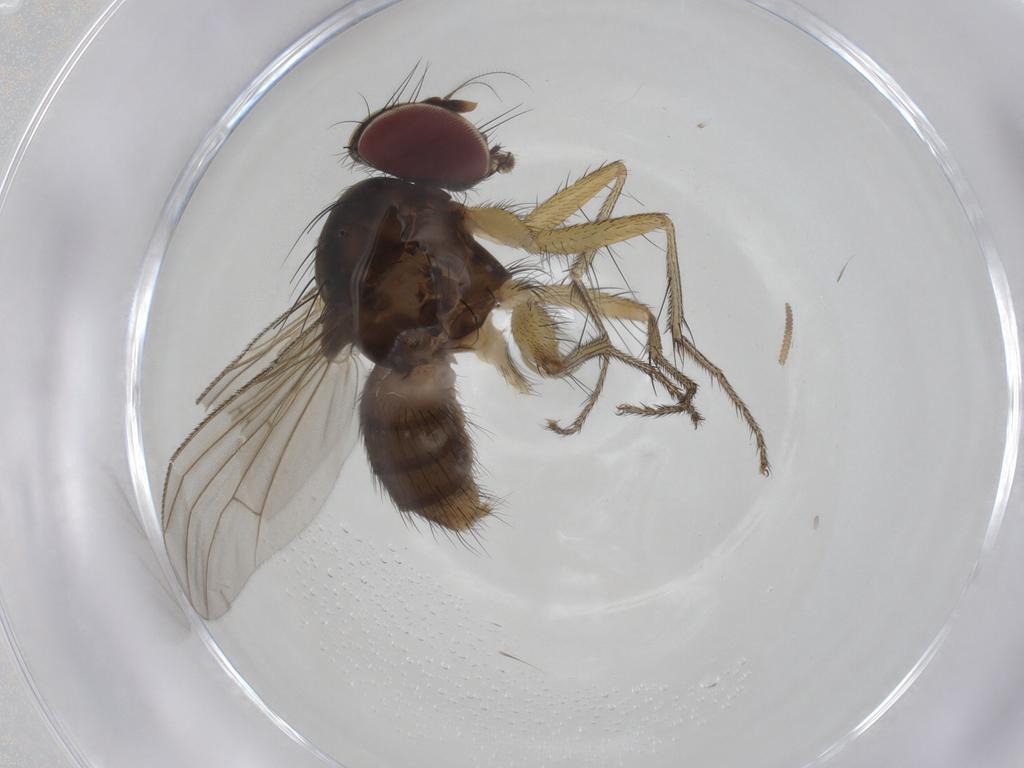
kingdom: Animalia
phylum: Arthropoda
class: Insecta
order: Diptera
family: Anthomyiidae
